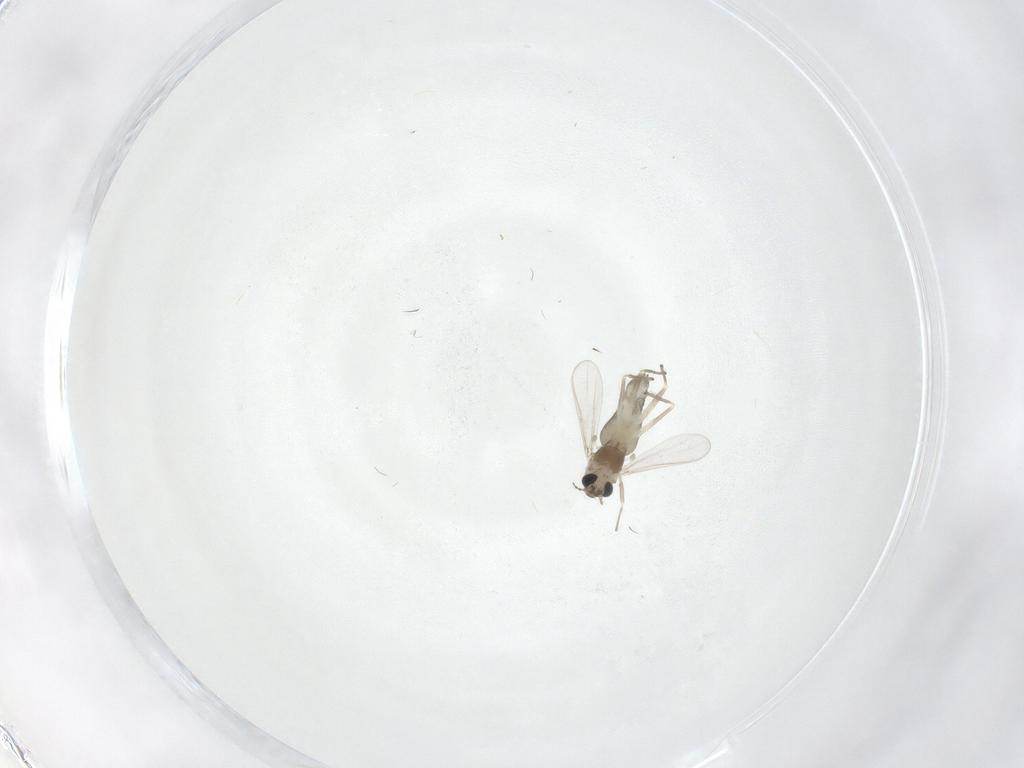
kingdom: Animalia
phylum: Arthropoda
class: Insecta
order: Diptera
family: Chironomidae
